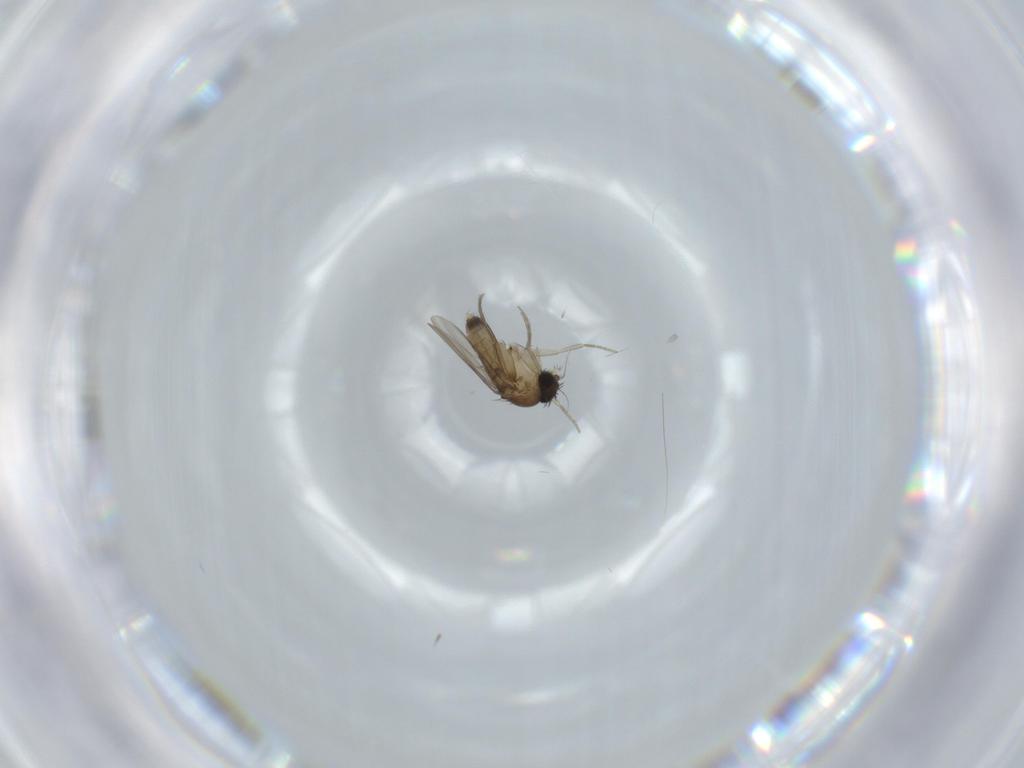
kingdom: Animalia
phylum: Arthropoda
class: Insecta
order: Diptera
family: Phoridae
